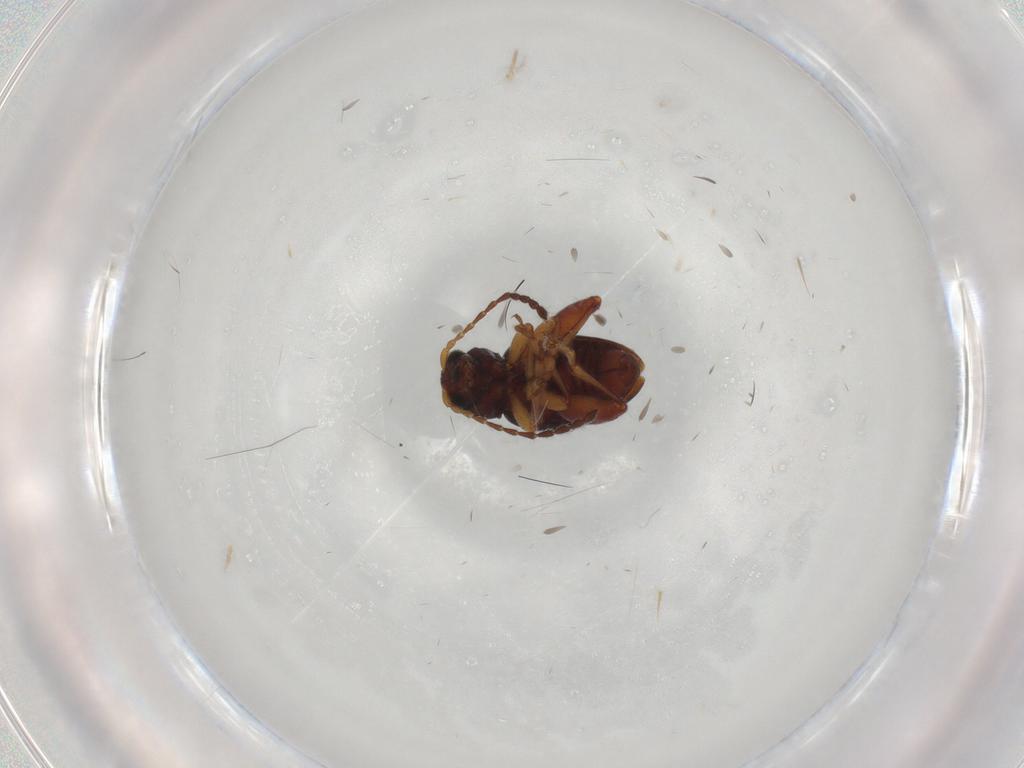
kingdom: Animalia
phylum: Arthropoda
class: Insecta
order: Coleoptera
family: Chrysomelidae
